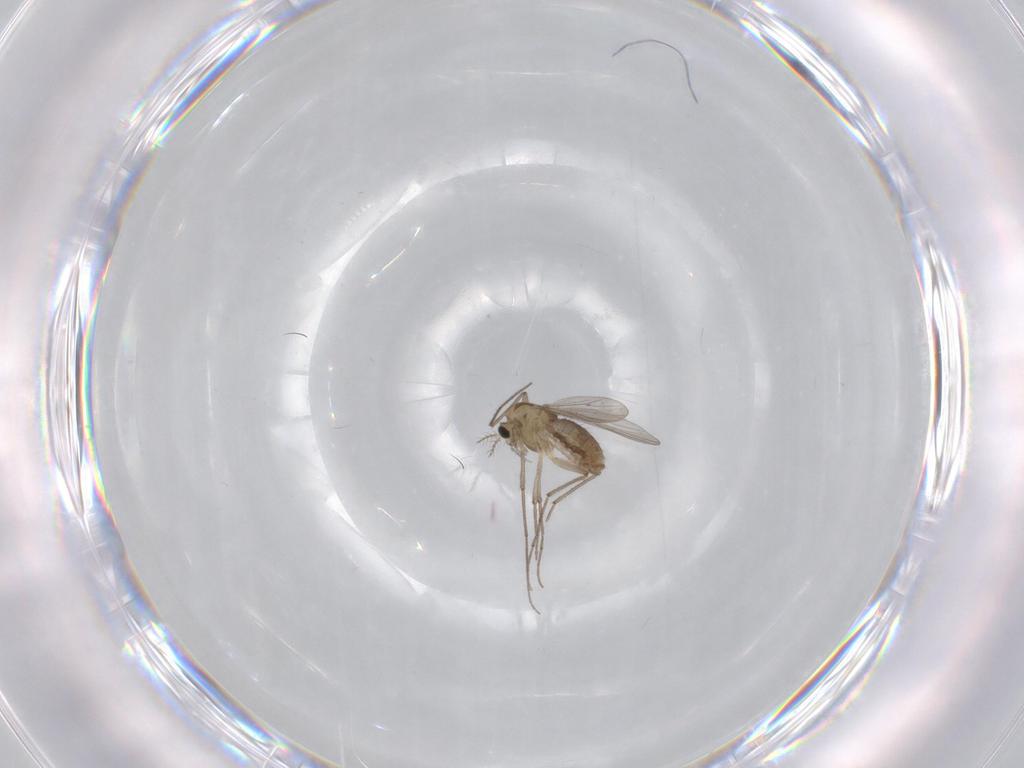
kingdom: Animalia
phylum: Arthropoda
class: Insecta
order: Diptera
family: Chironomidae
